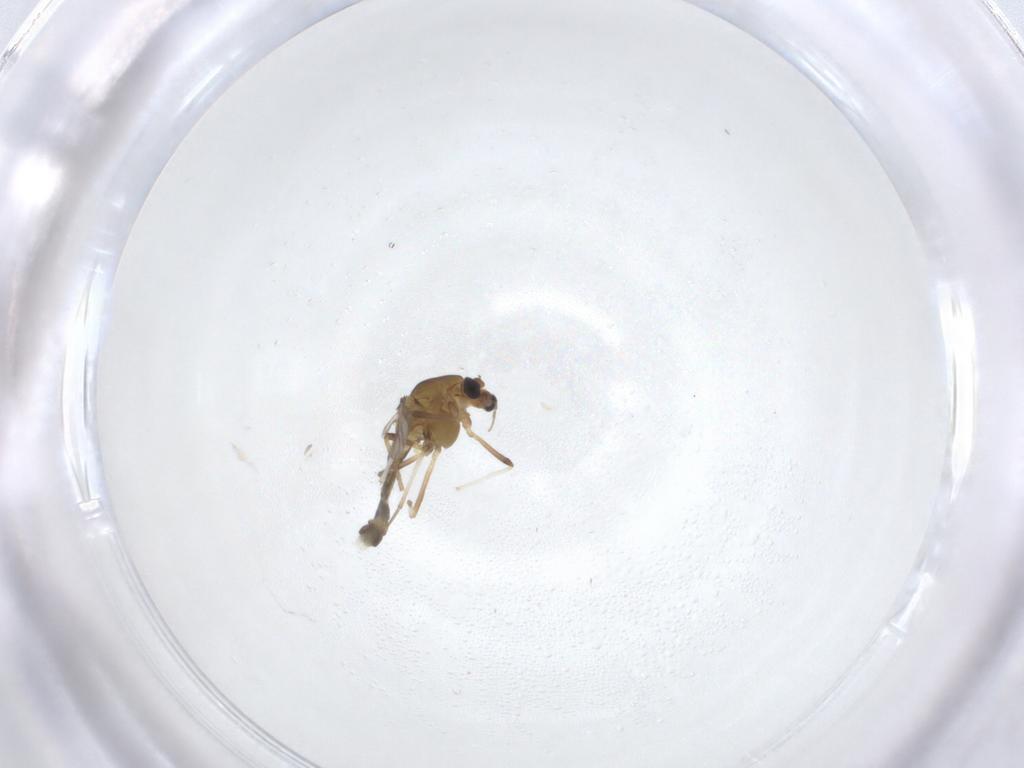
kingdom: Animalia
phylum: Arthropoda
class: Insecta
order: Diptera
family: Chironomidae
